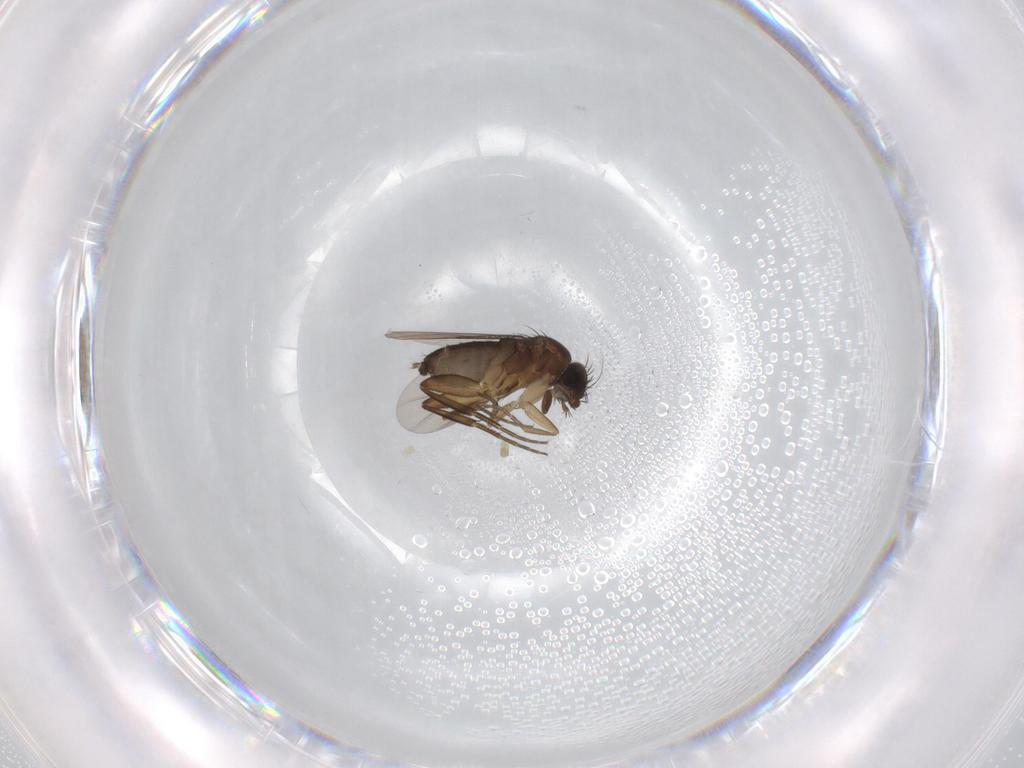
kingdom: Animalia
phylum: Arthropoda
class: Insecta
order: Diptera
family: Phoridae
